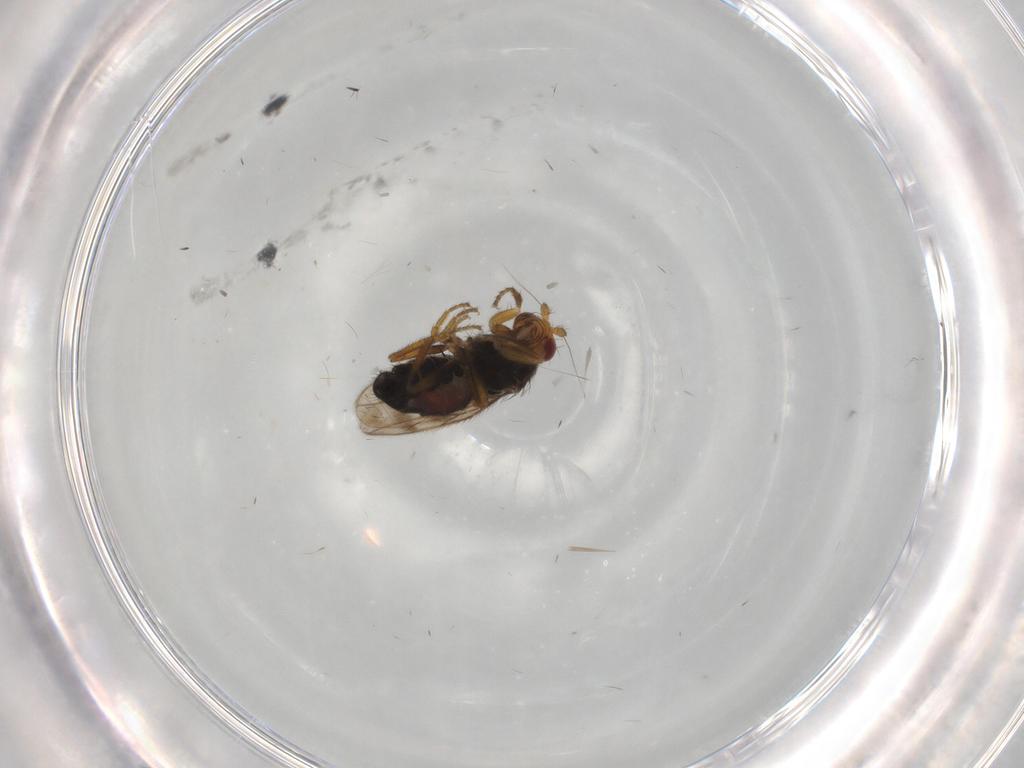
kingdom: Animalia
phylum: Arthropoda
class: Insecta
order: Diptera
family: Sphaeroceridae
